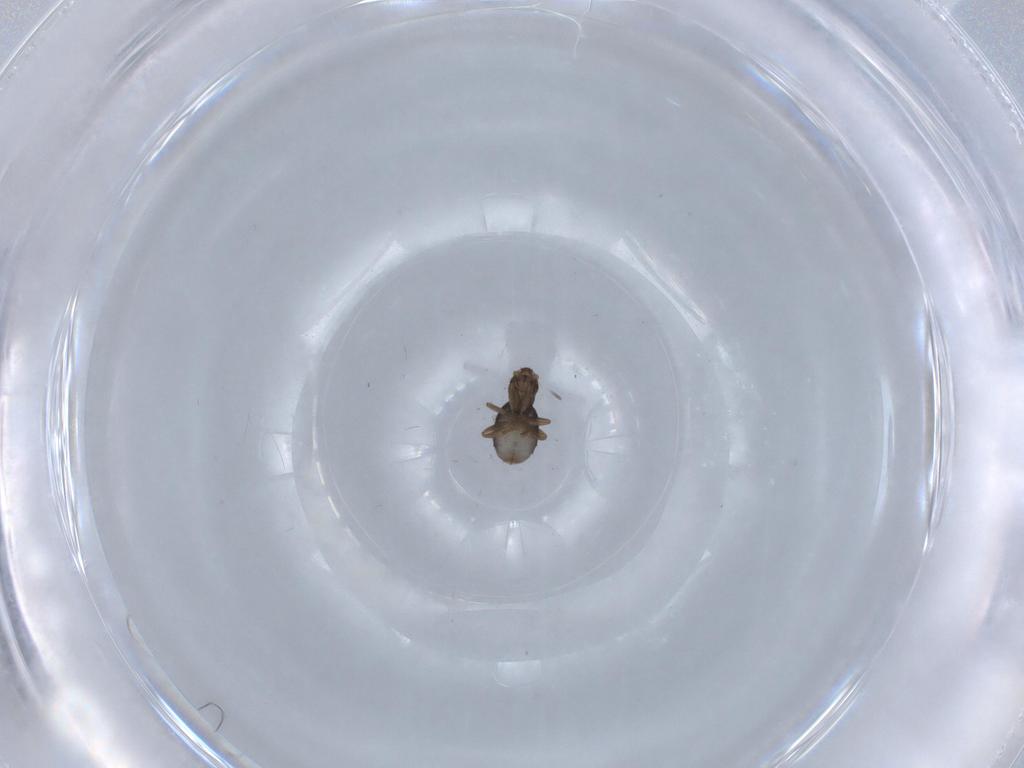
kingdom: Animalia
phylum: Arthropoda
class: Insecta
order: Diptera
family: Phoridae
